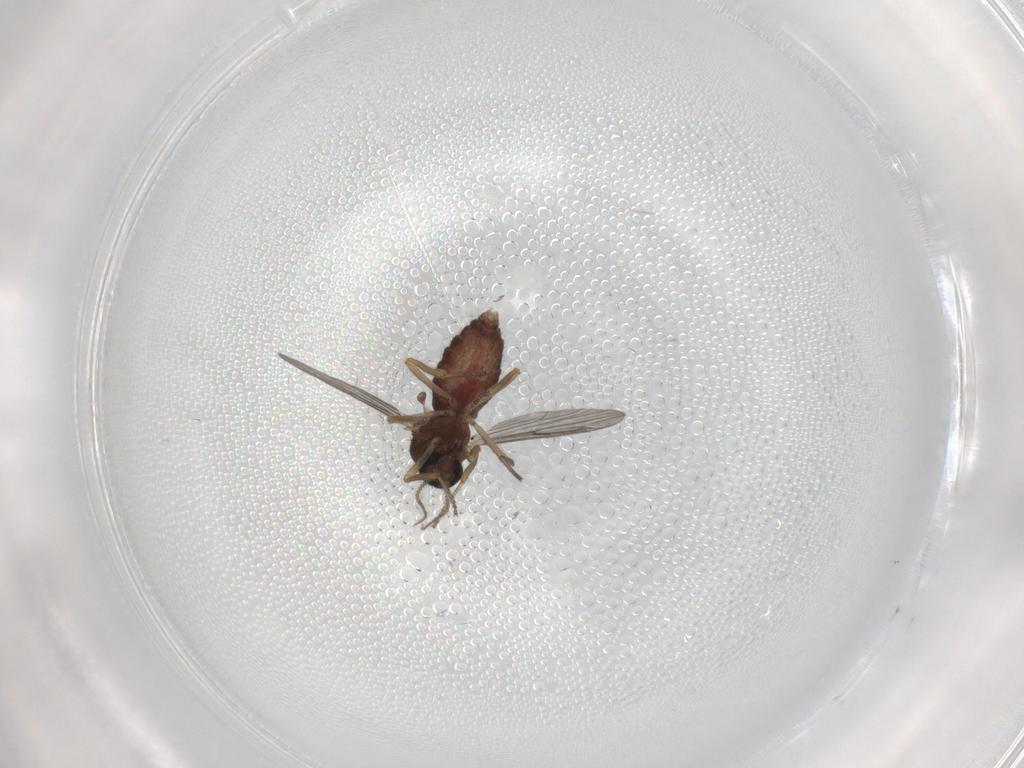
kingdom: Animalia
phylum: Arthropoda
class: Insecta
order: Diptera
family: Ceratopogonidae
